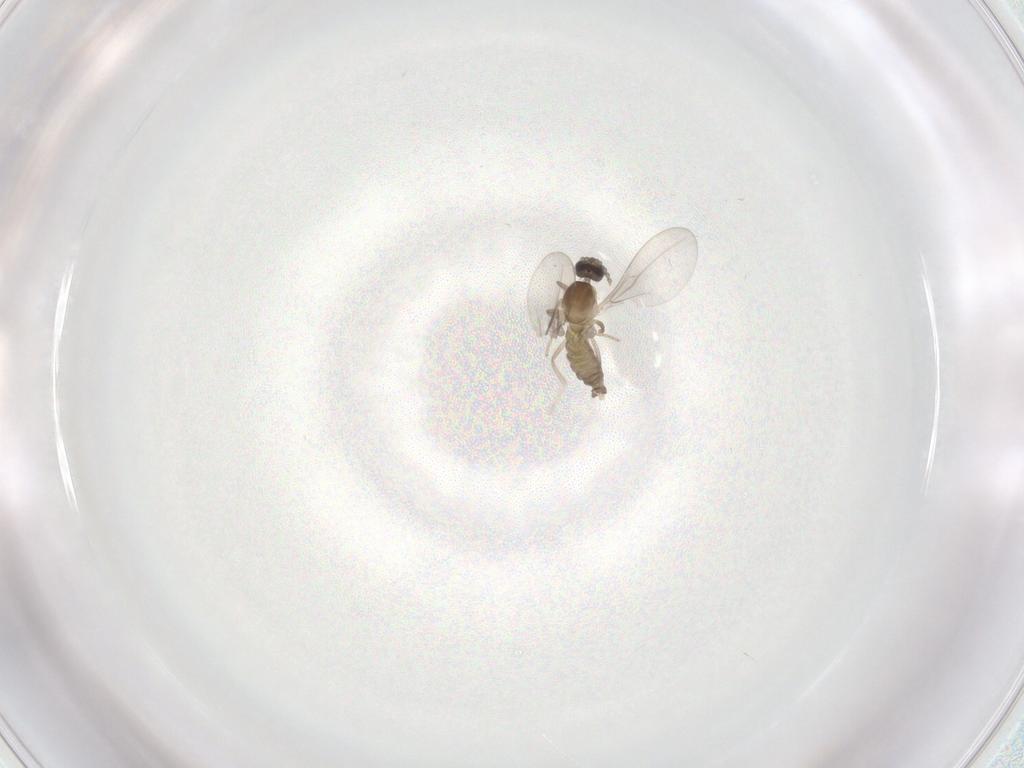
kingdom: Animalia
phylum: Arthropoda
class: Insecta
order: Diptera
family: Cecidomyiidae
